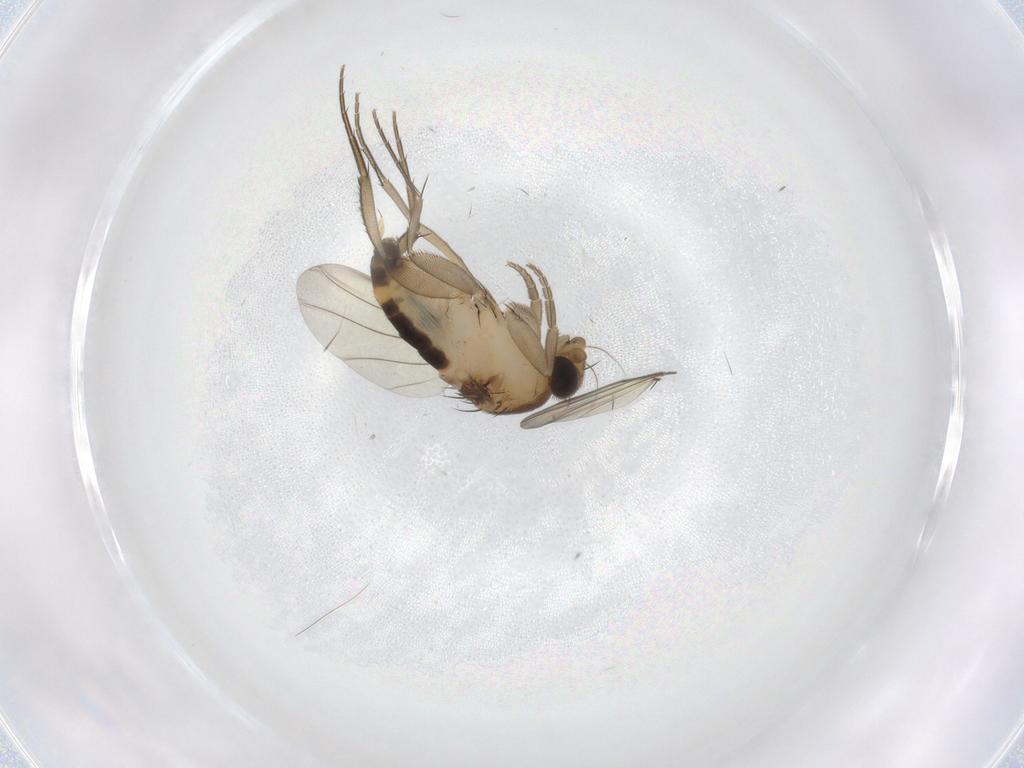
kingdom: Animalia
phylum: Arthropoda
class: Insecta
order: Diptera
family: Phoridae
